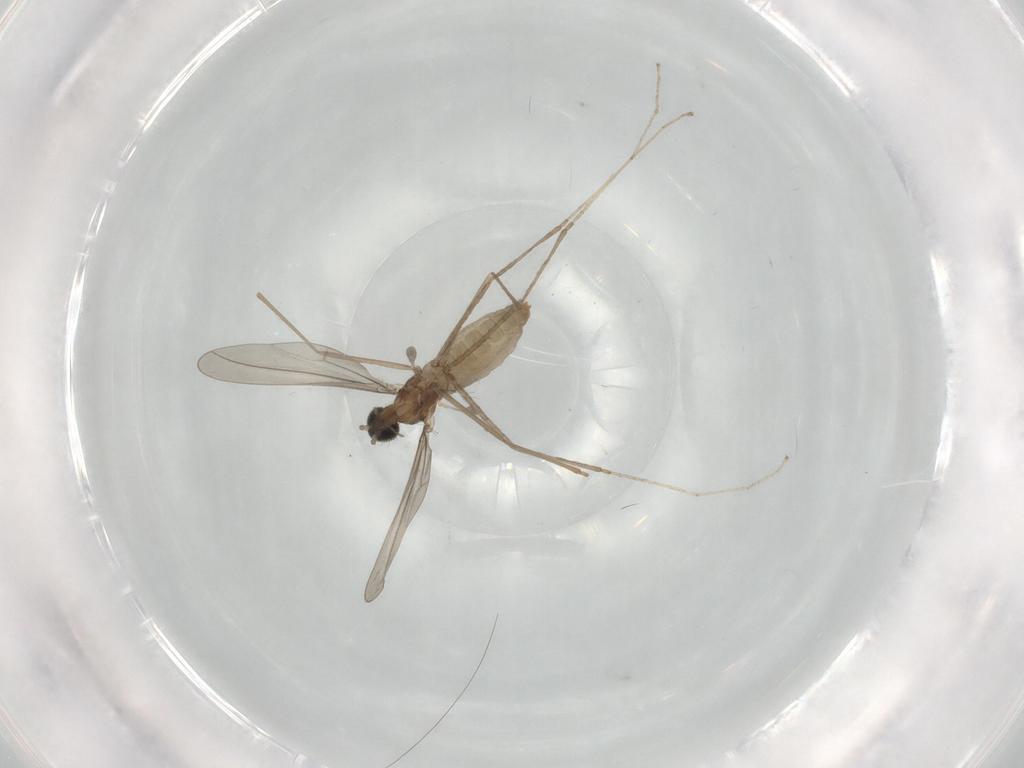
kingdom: Animalia
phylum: Arthropoda
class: Insecta
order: Diptera
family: Cecidomyiidae
